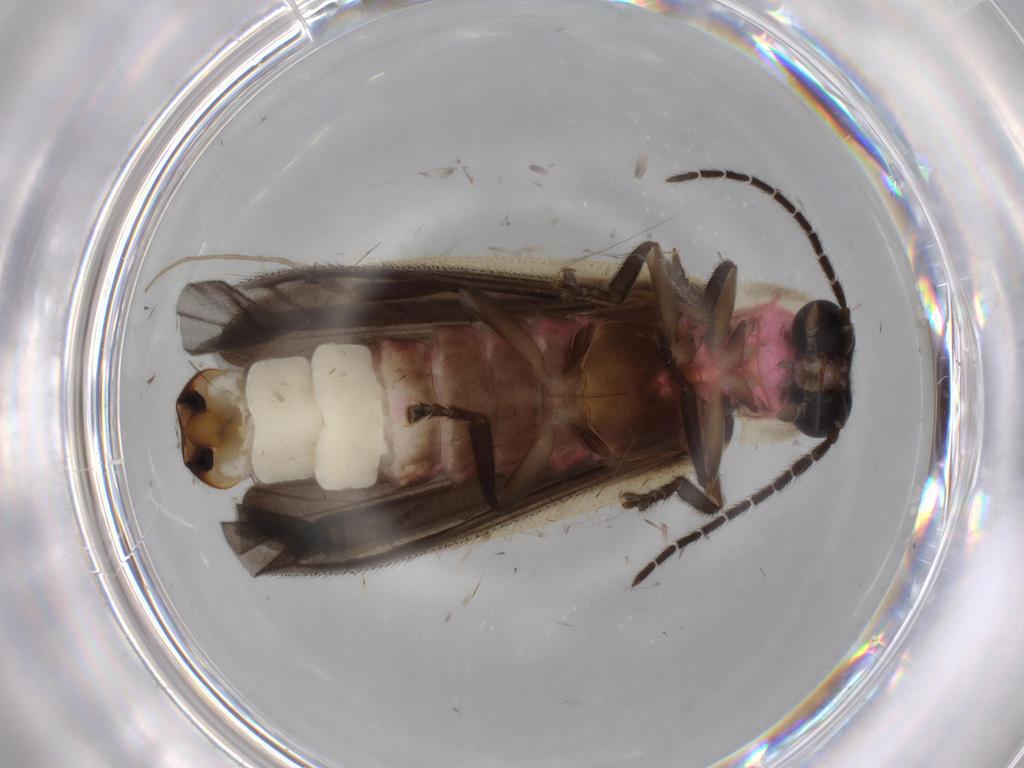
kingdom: Animalia
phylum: Arthropoda
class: Insecta
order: Coleoptera
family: Lampyridae
